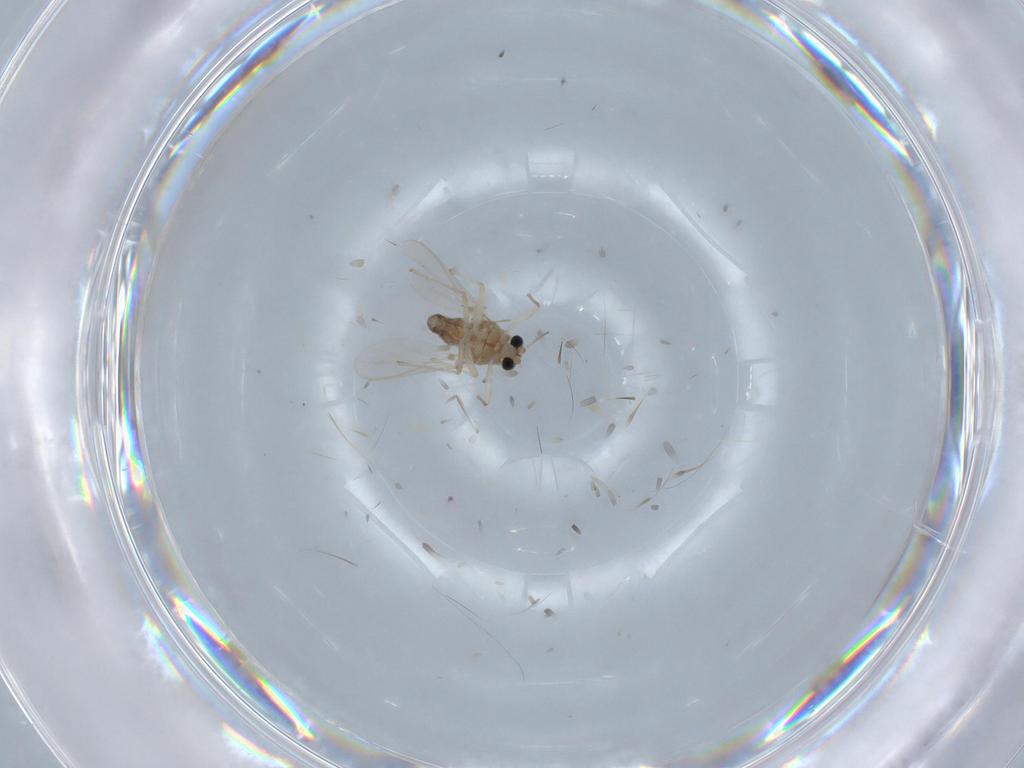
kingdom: Animalia
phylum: Arthropoda
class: Insecta
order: Diptera
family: Chironomidae
